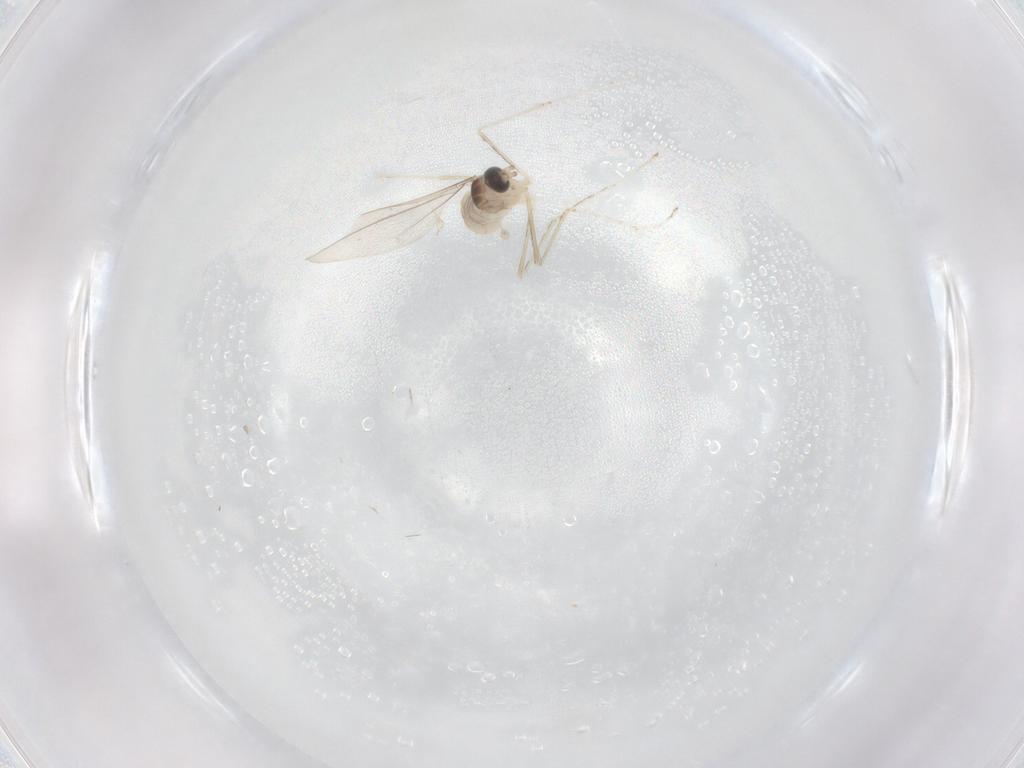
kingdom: Animalia
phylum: Arthropoda
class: Insecta
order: Diptera
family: Cecidomyiidae
